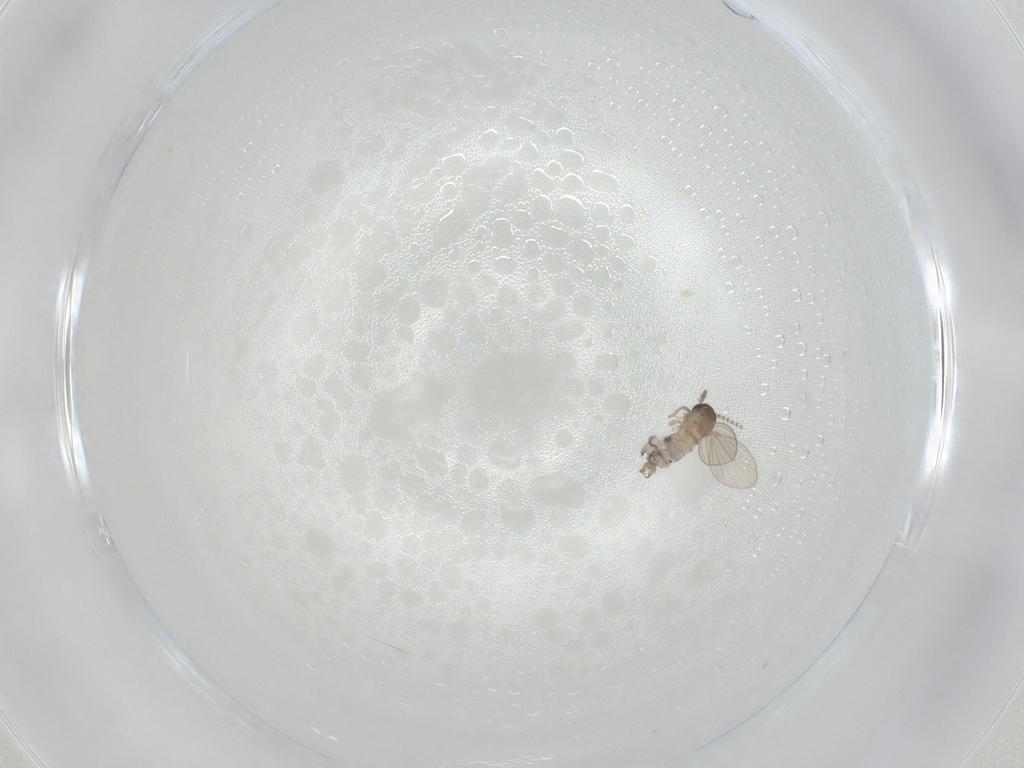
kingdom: Animalia
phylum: Arthropoda
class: Insecta
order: Diptera
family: Psychodidae
